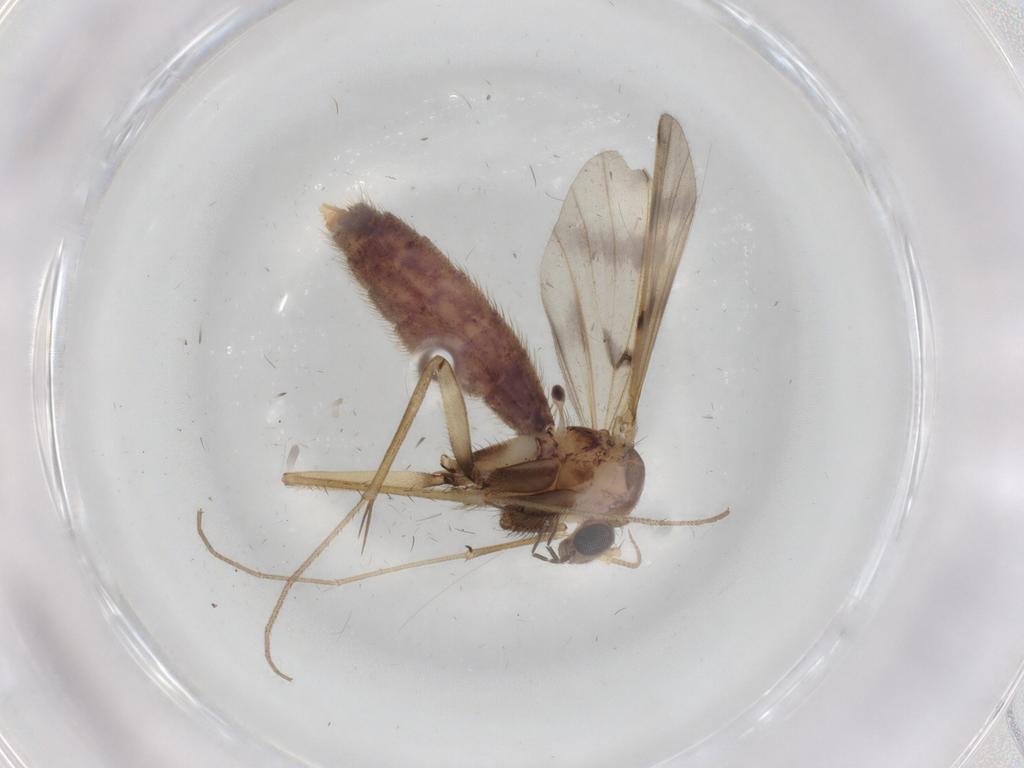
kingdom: Animalia
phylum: Arthropoda
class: Insecta
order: Diptera
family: Mycetophilidae
